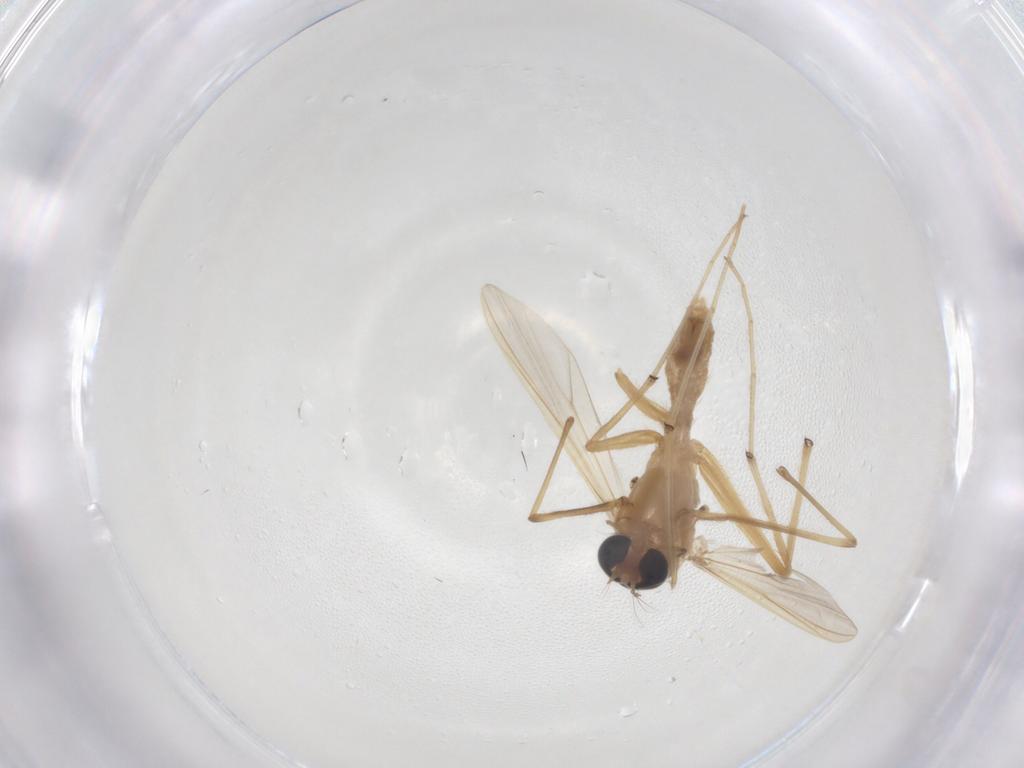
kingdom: Animalia
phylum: Arthropoda
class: Insecta
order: Diptera
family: Chironomidae
